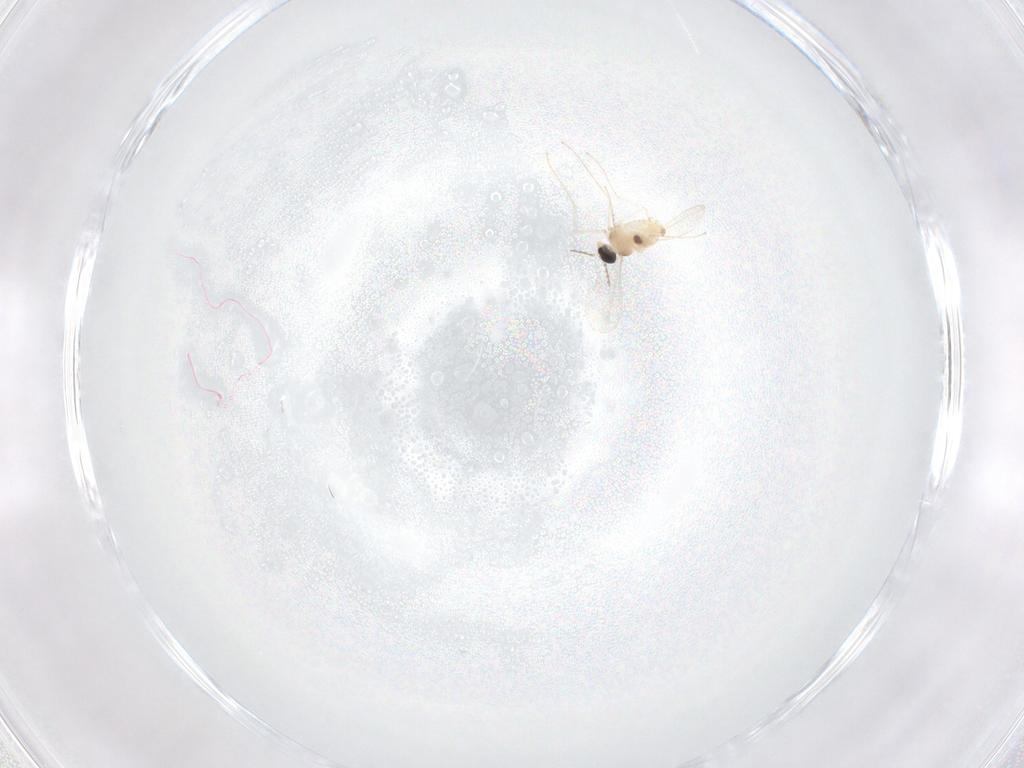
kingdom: Animalia
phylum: Arthropoda
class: Insecta
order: Diptera
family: Cecidomyiidae
